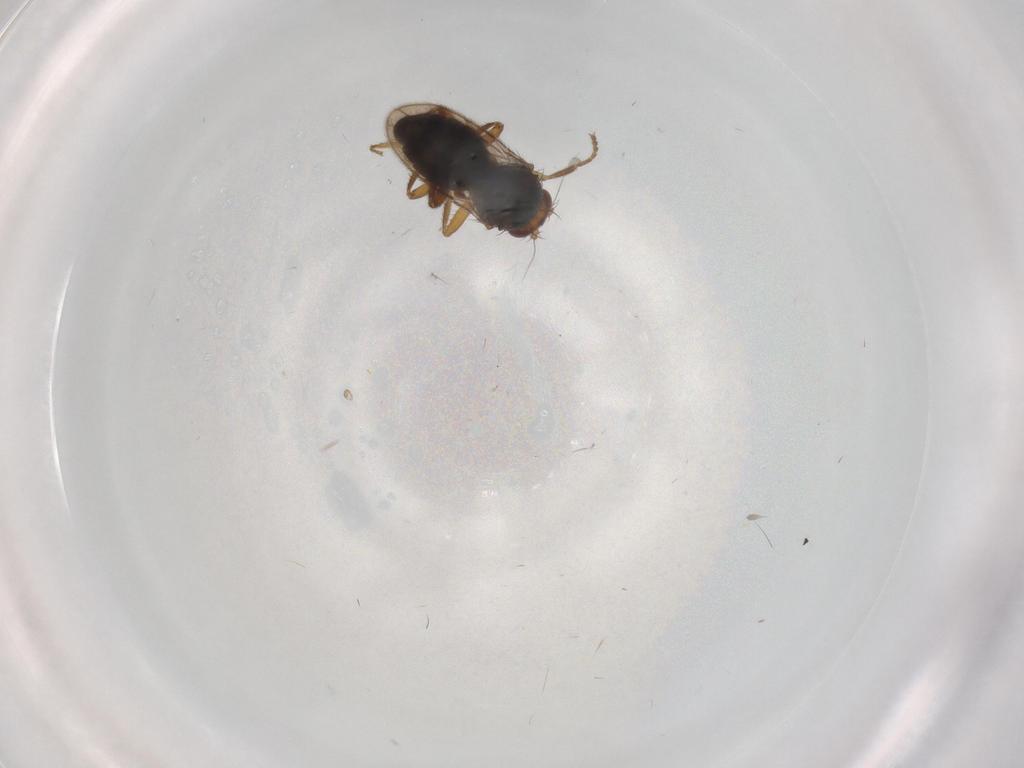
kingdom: Animalia
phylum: Arthropoda
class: Insecta
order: Diptera
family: Sphaeroceridae
